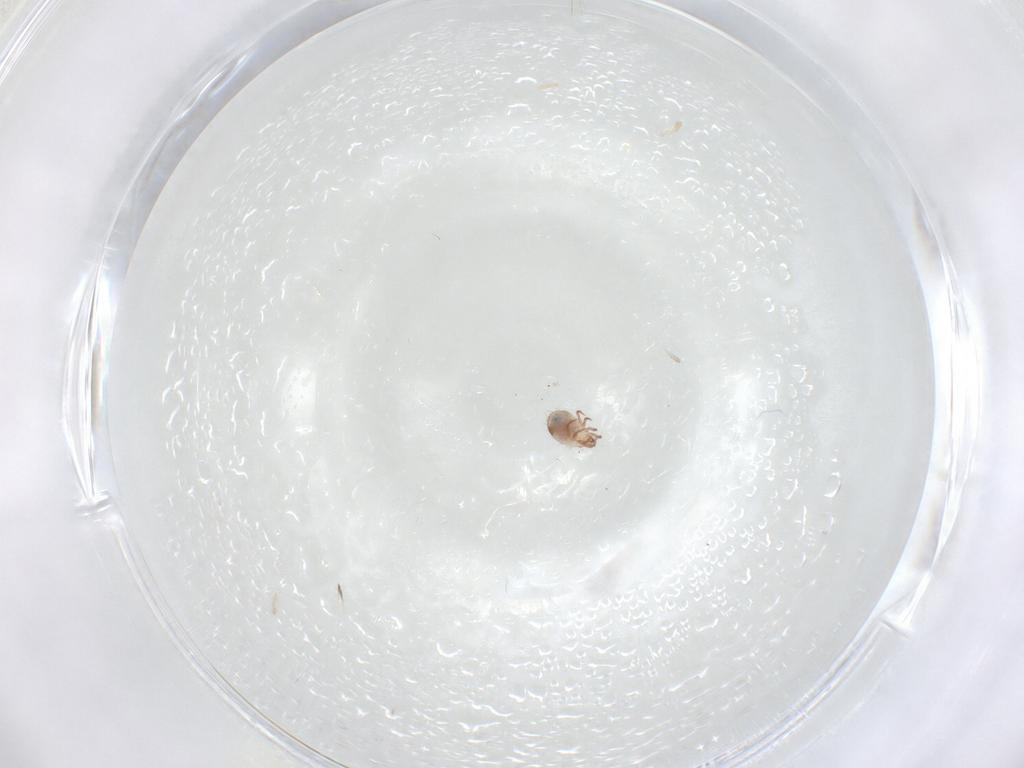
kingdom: Animalia
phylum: Arthropoda
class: Arachnida
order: Sarcoptiformes
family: Humerobatidae
